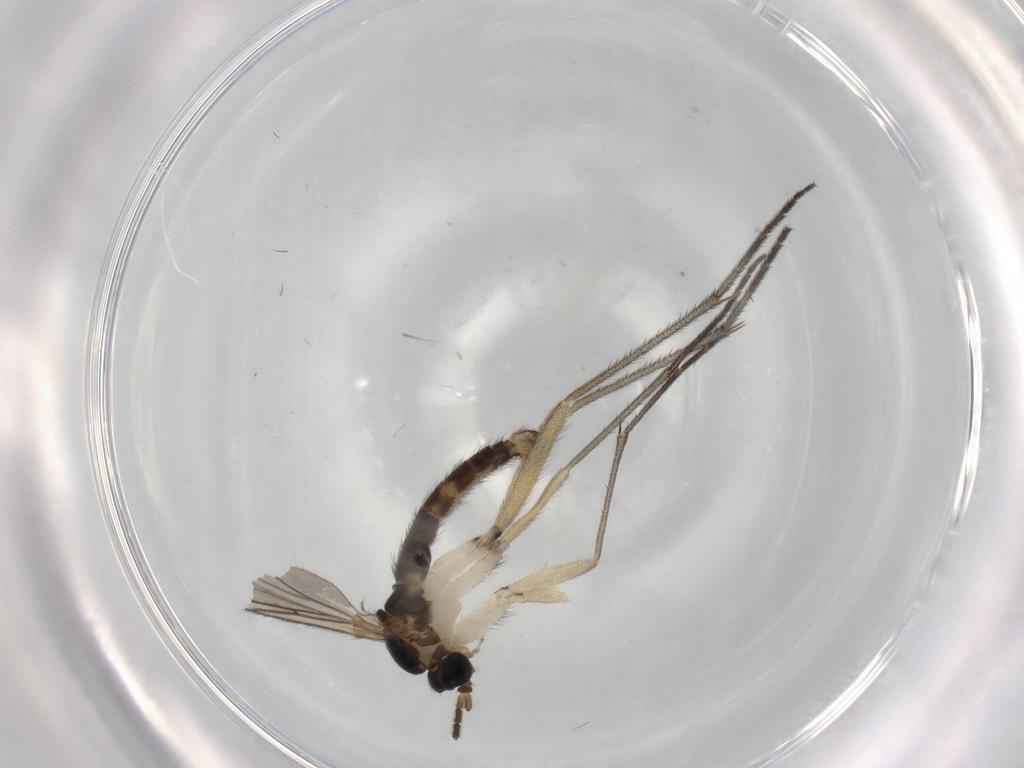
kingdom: Animalia
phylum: Arthropoda
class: Insecta
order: Diptera
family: Sciaridae
